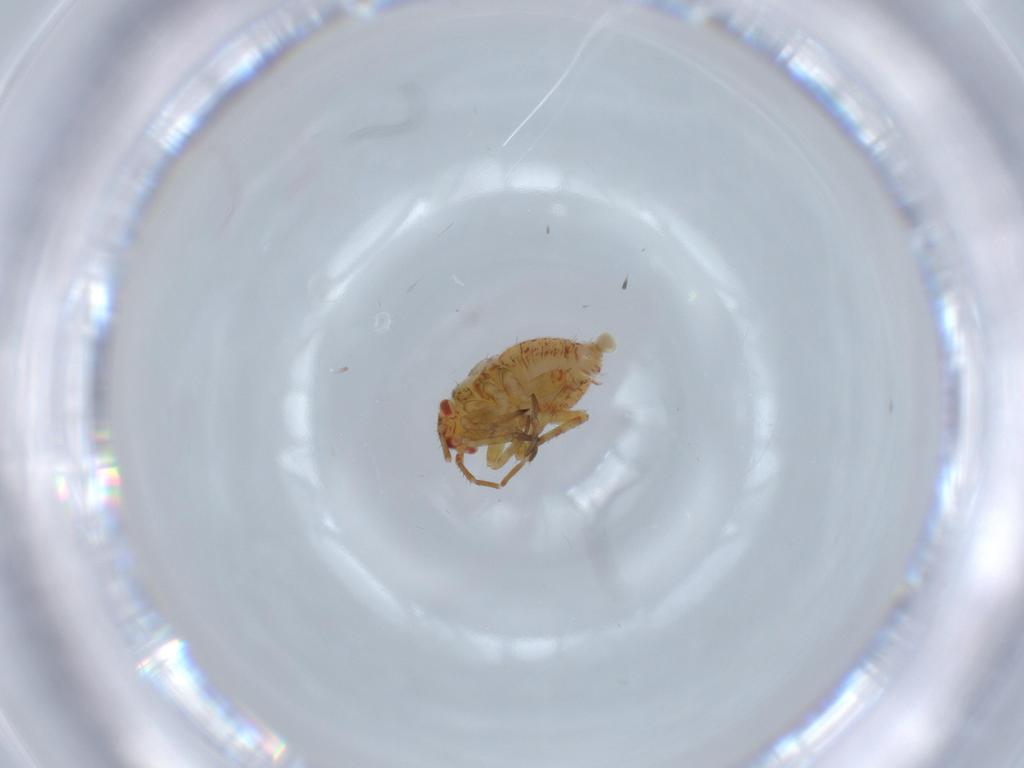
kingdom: Animalia
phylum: Arthropoda
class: Insecta
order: Hemiptera
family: Miridae
